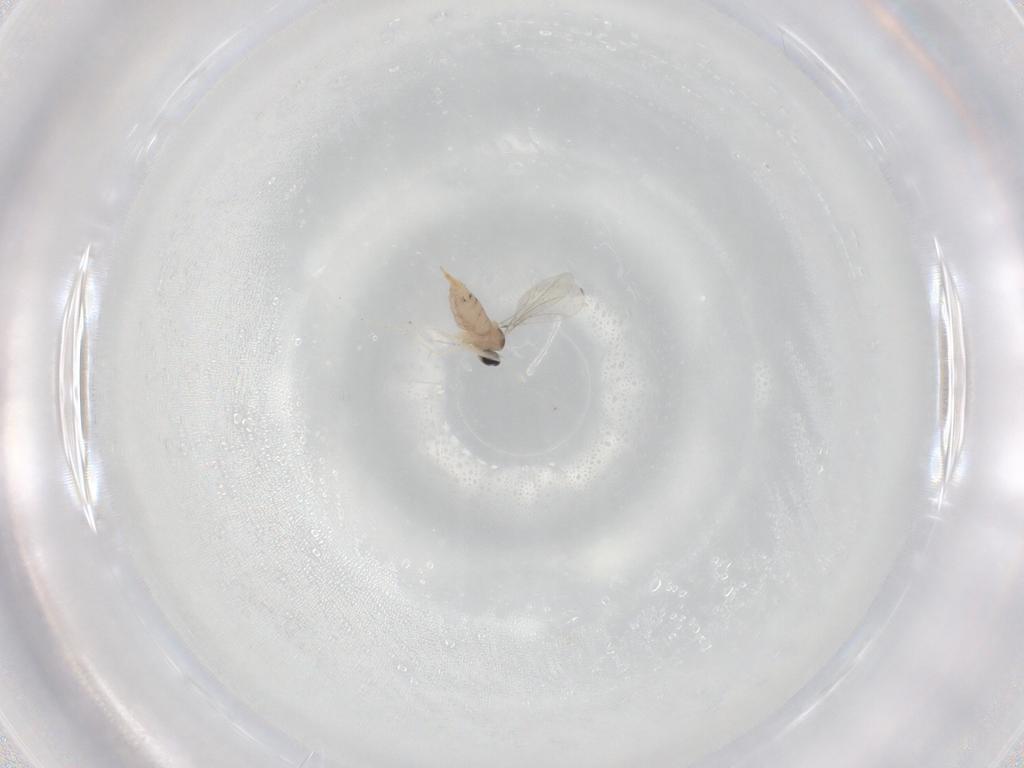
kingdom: Animalia
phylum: Arthropoda
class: Insecta
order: Diptera
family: Cecidomyiidae
